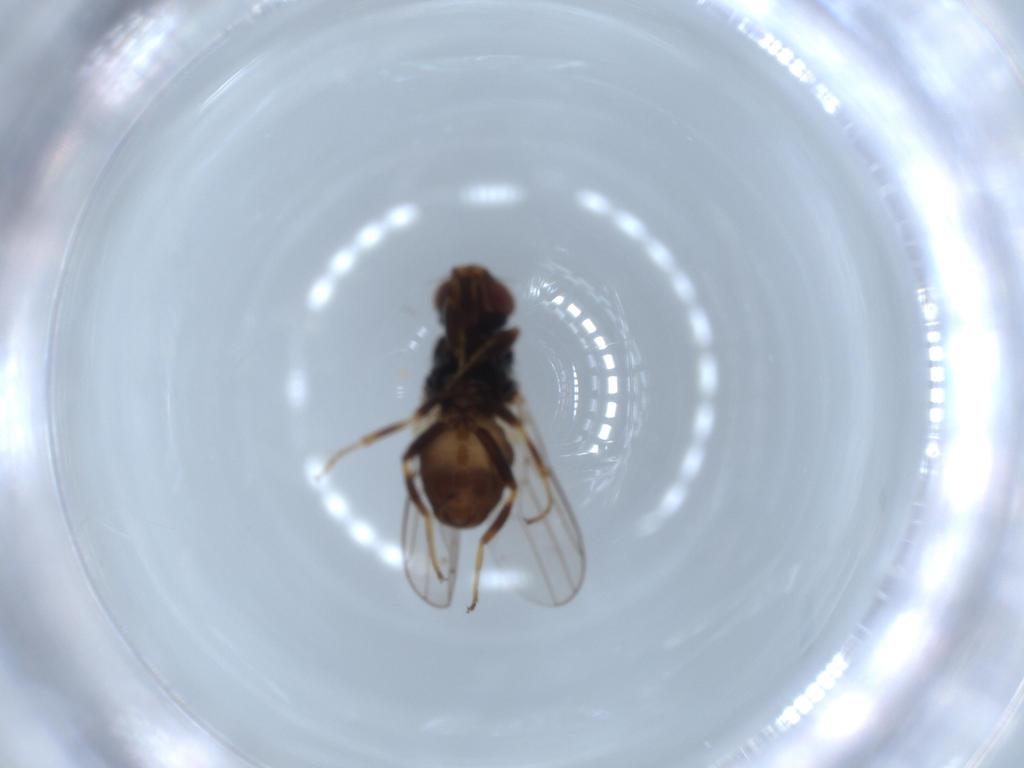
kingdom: Animalia
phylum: Arthropoda
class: Insecta
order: Diptera
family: Chloropidae
